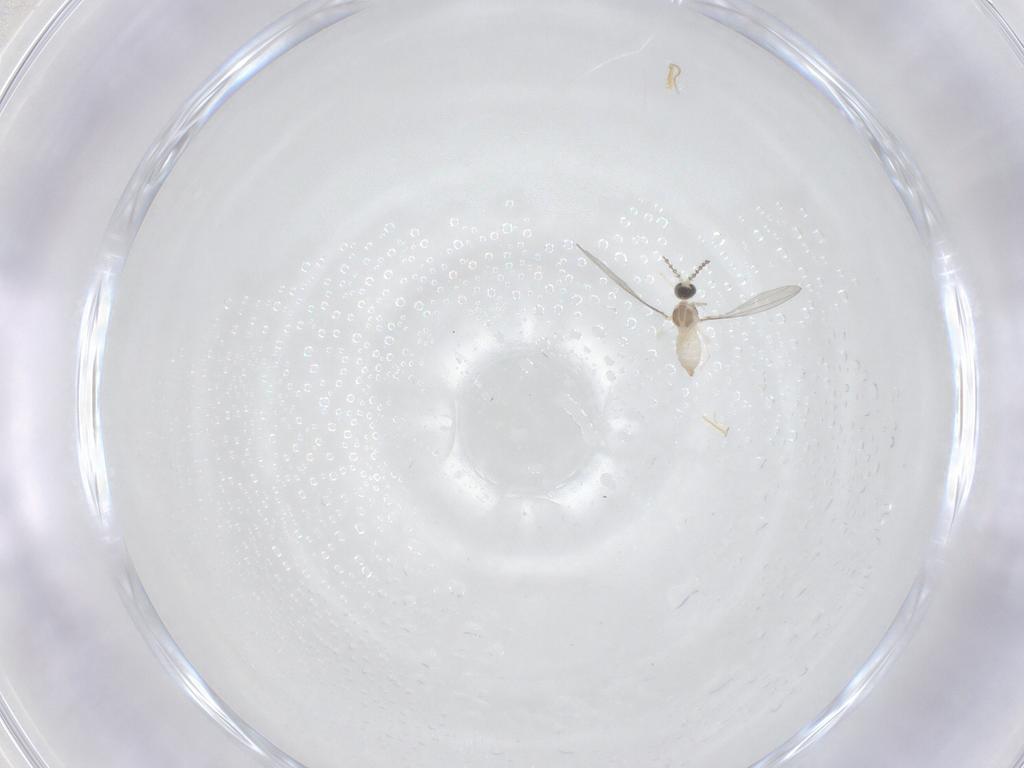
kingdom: Animalia
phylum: Arthropoda
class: Insecta
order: Diptera
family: Cecidomyiidae
